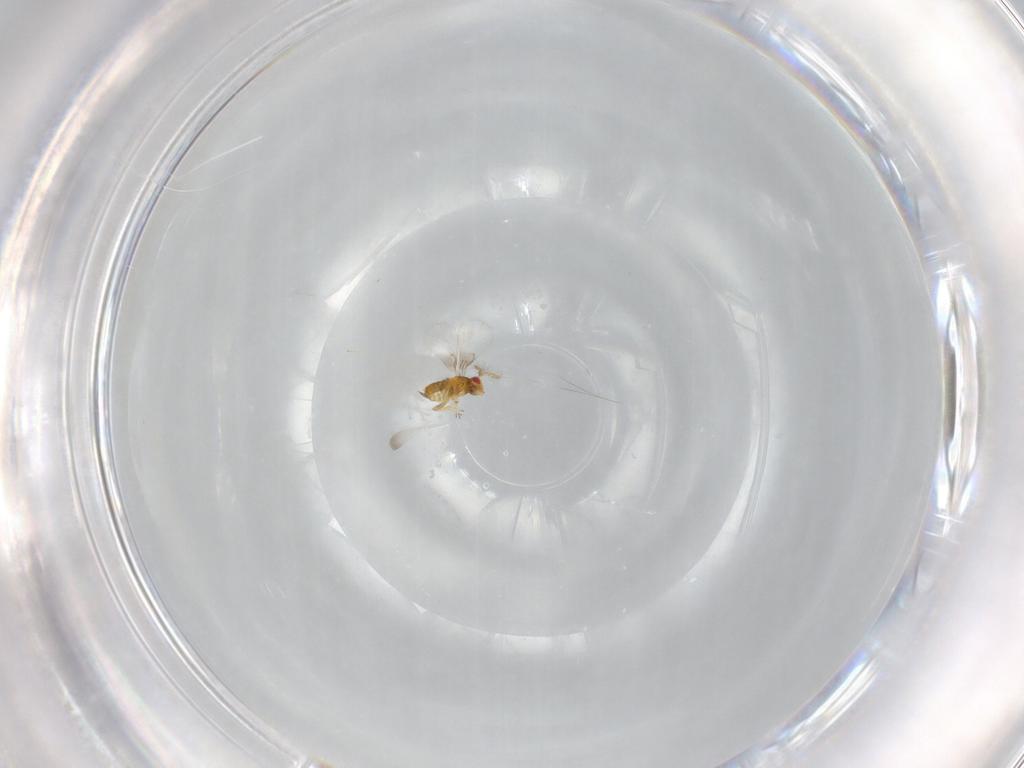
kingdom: Animalia
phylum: Arthropoda
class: Insecta
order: Hymenoptera
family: Trichogrammatidae
